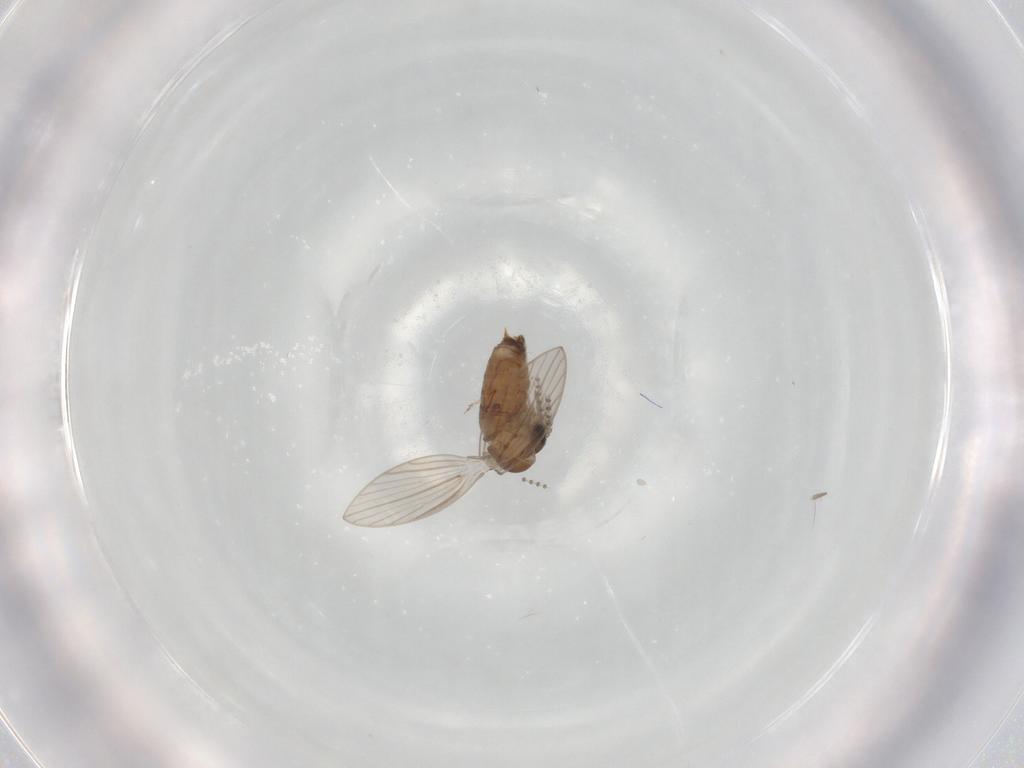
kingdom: Animalia
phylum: Arthropoda
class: Insecta
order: Diptera
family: Psychodidae
